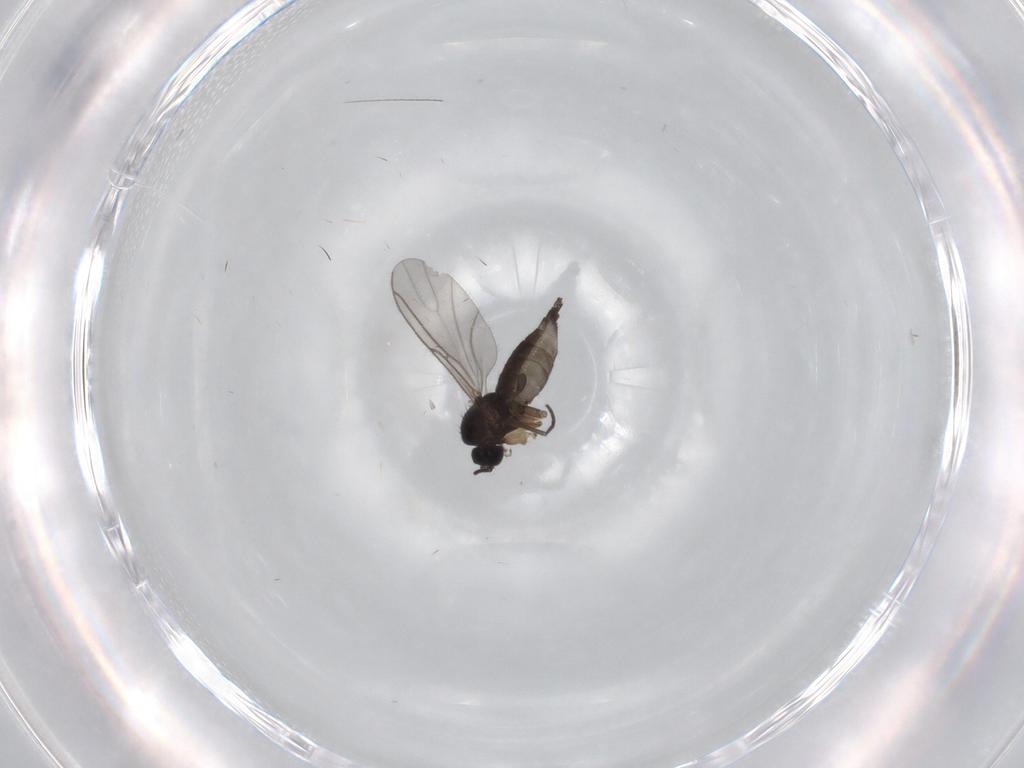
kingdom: Animalia
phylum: Arthropoda
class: Insecta
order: Diptera
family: Sciaridae
